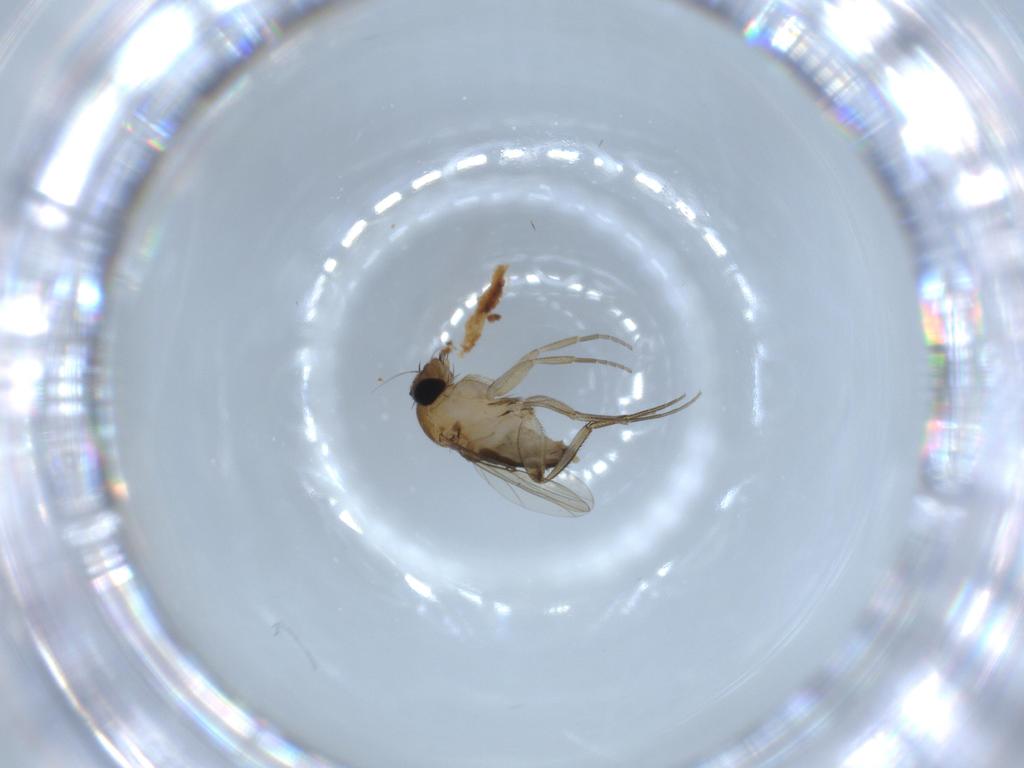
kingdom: Animalia
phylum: Arthropoda
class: Insecta
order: Diptera
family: Phoridae
